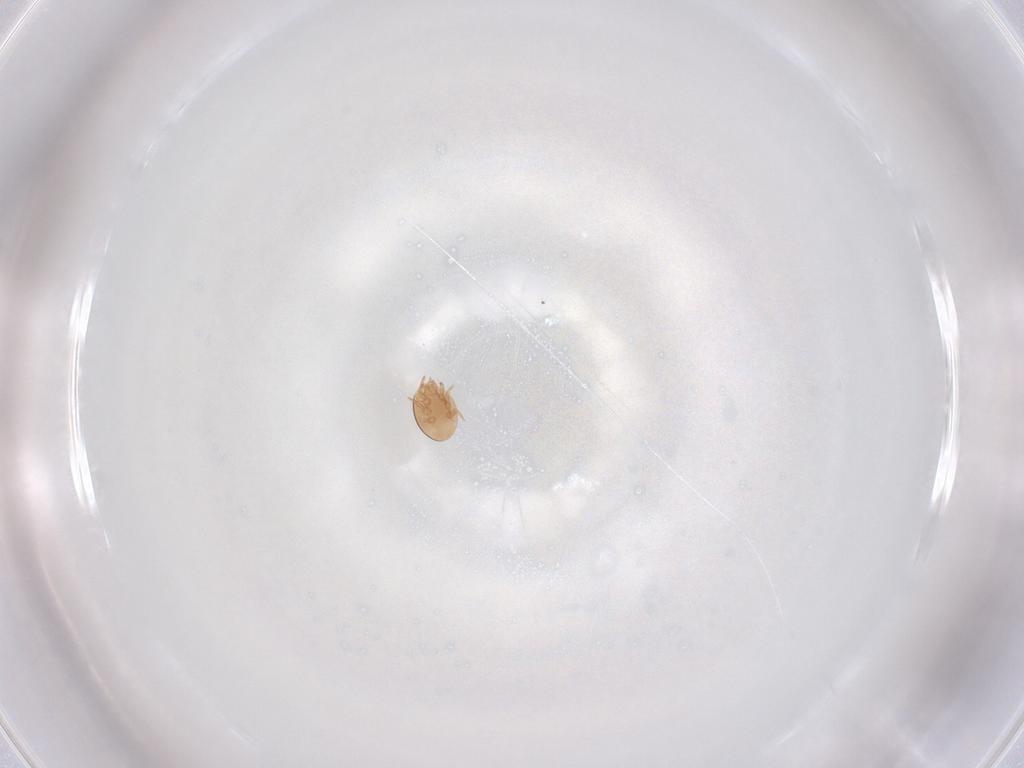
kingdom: Animalia
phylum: Arthropoda
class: Arachnida
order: Mesostigmata
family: Trematuridae
